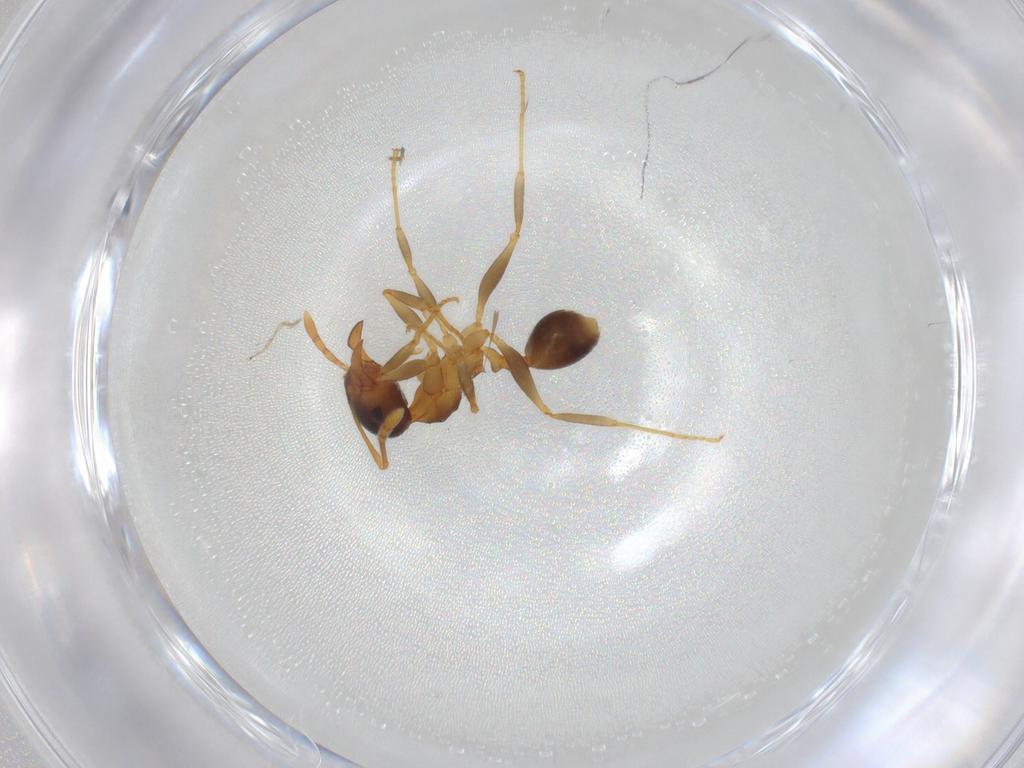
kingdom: Animalia
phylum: Arthropoda
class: Insecta
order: Hymenoptera
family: Ichneumonidae
